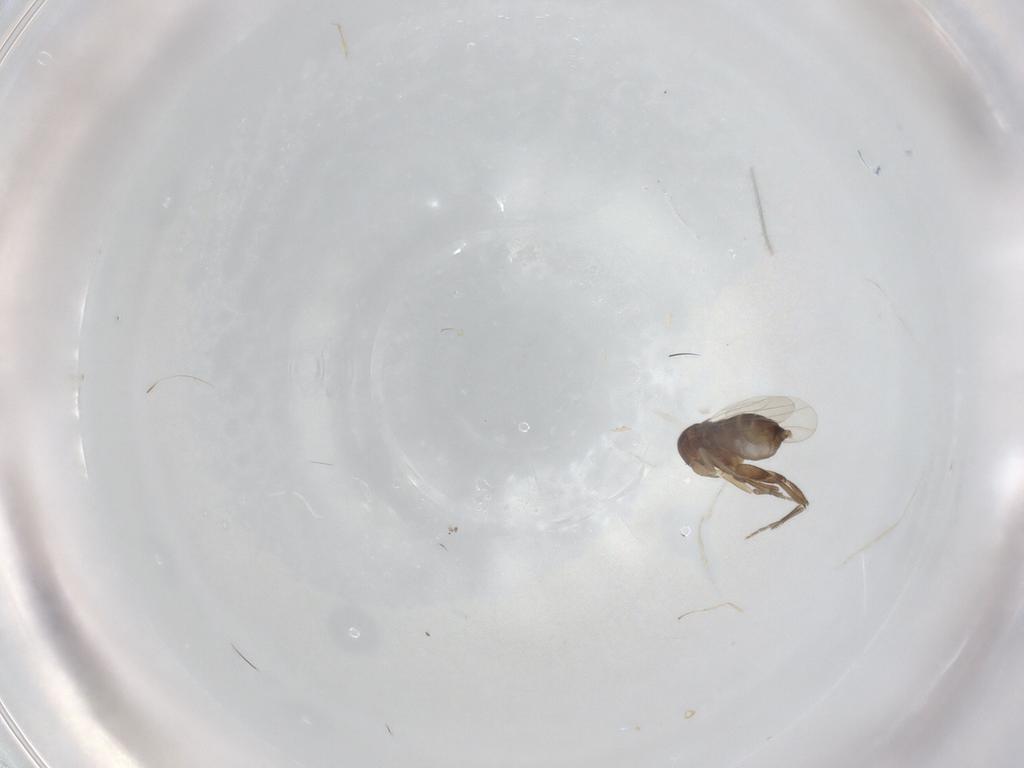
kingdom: Animalia
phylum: Arthropoda
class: Insecta
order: Diptera
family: Phoridae
